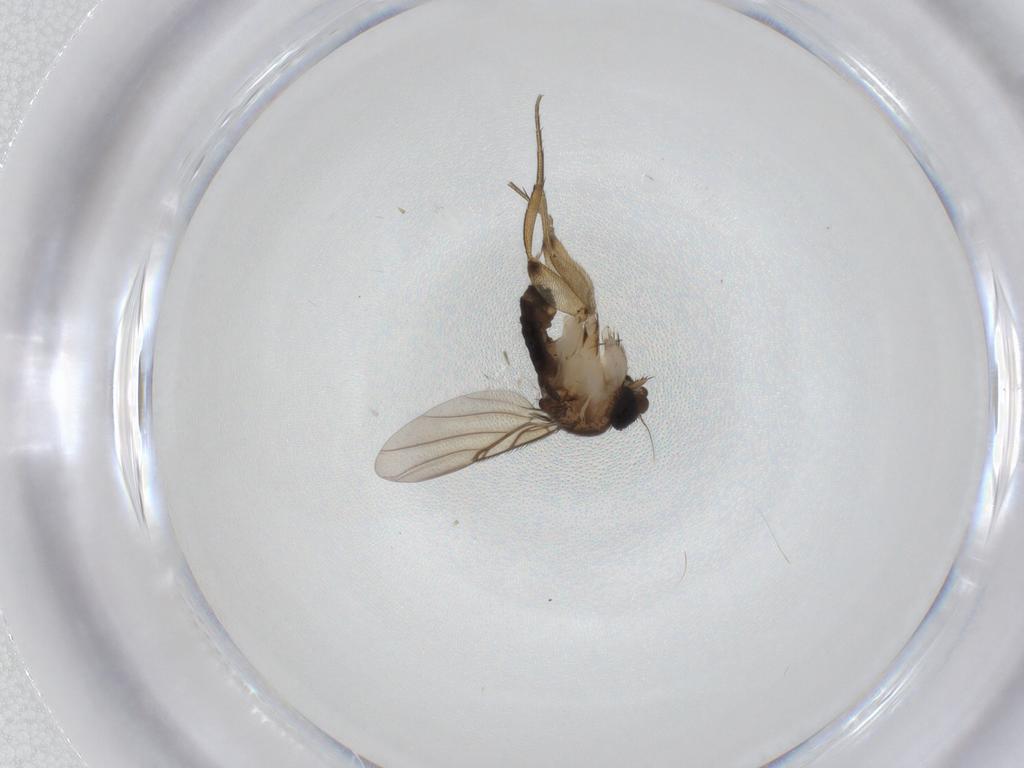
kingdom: Animalia
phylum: Arthropoda
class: Insecta
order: Diptera
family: Phoridae
